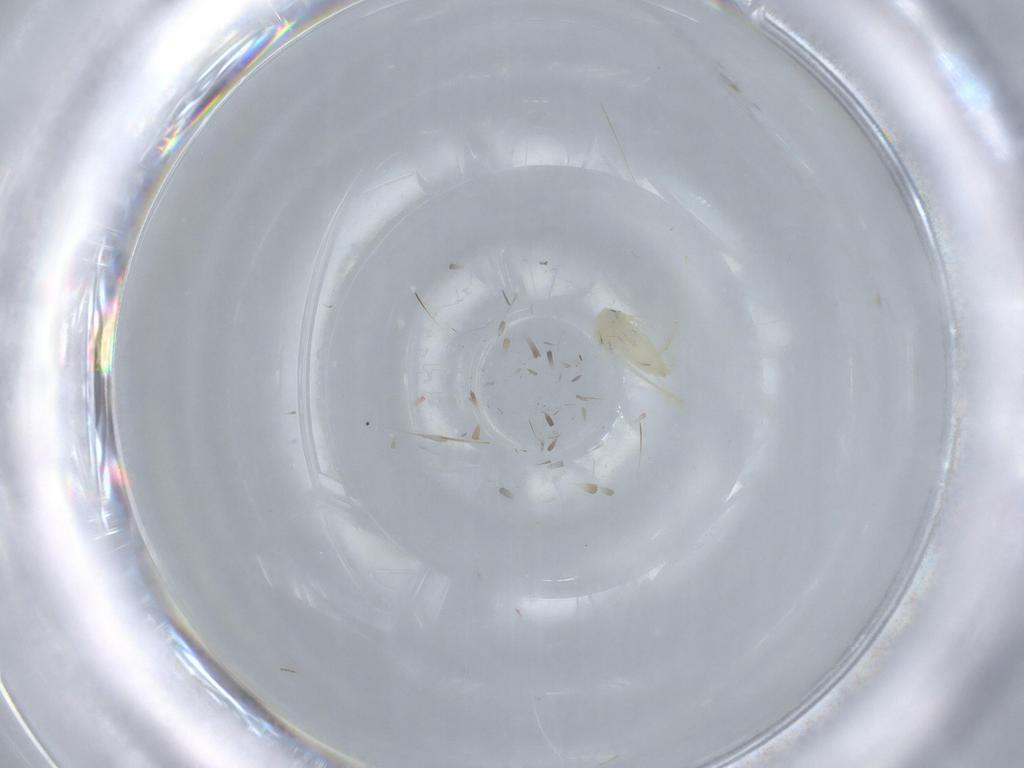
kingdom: Animalia
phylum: Arthropoda
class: Insecta
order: Diptera
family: Ceratopogonidae
